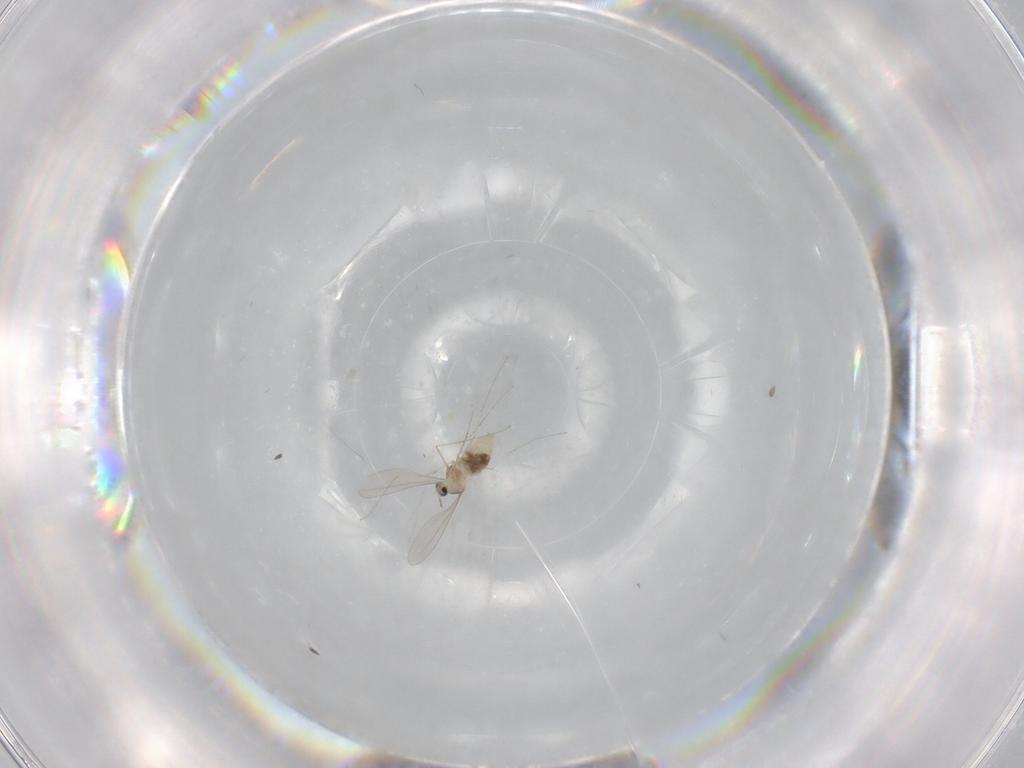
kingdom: Animalia
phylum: Arthropoda
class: Insecta
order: Diptera
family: Cecidomyiidae
